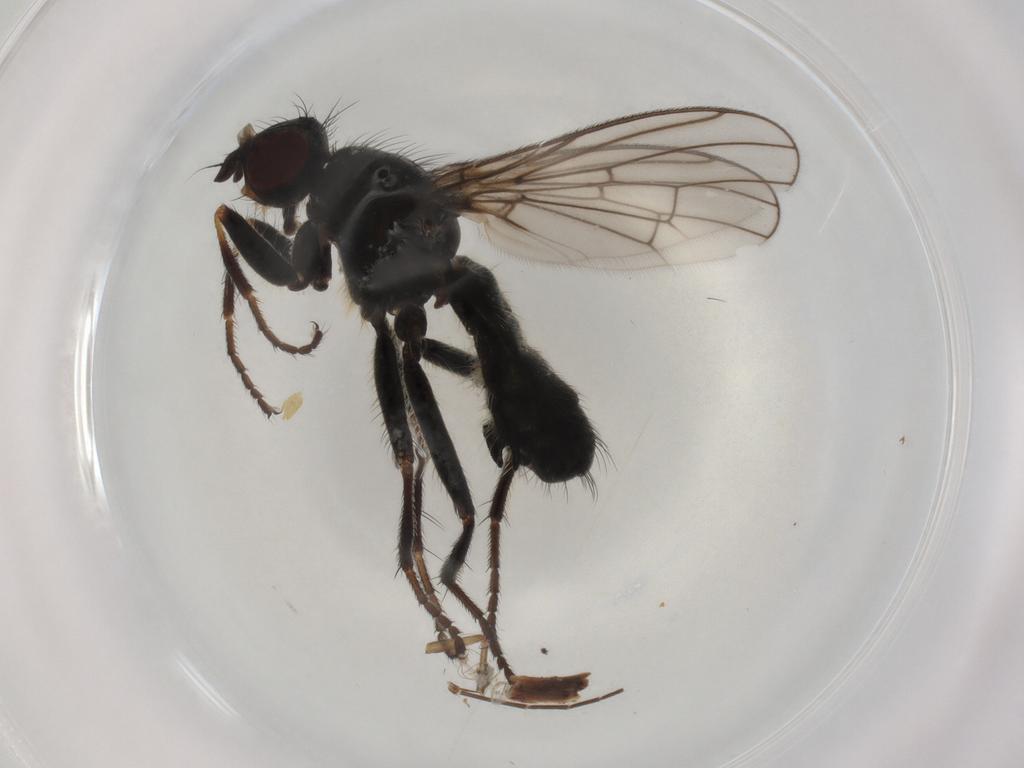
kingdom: Animalia
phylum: Arthropoda
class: Insecta
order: Diptera
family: Scathophagidae
